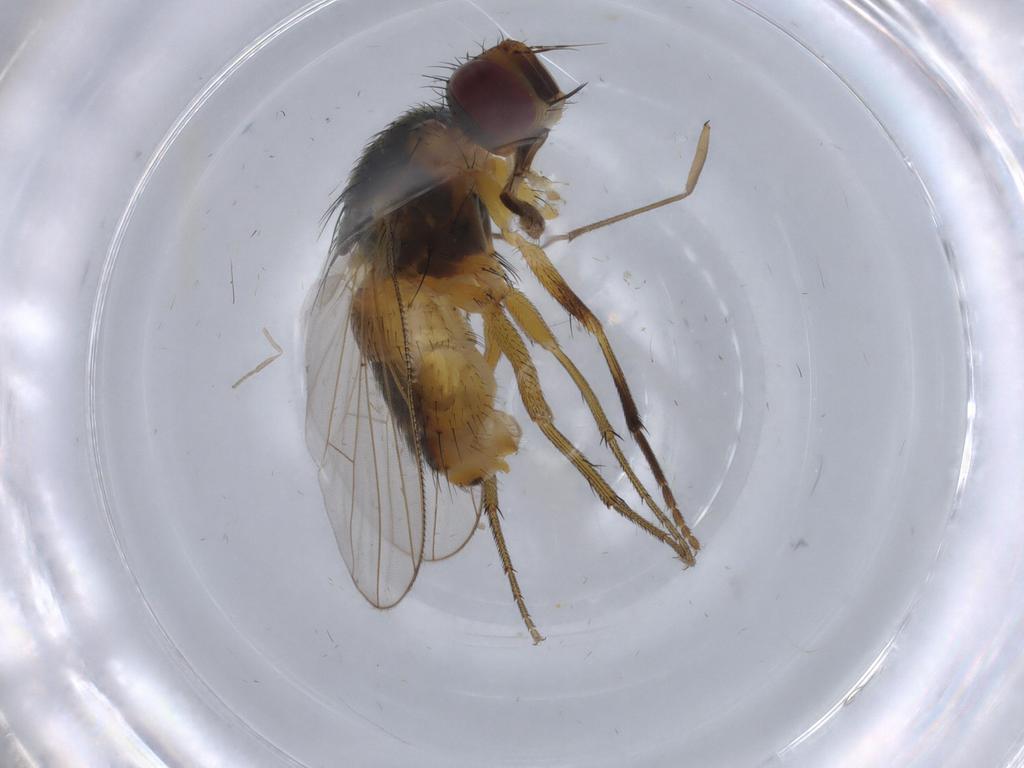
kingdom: Animalia
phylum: Arthropoda
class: Insecta
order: Diptera
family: Muscidae
